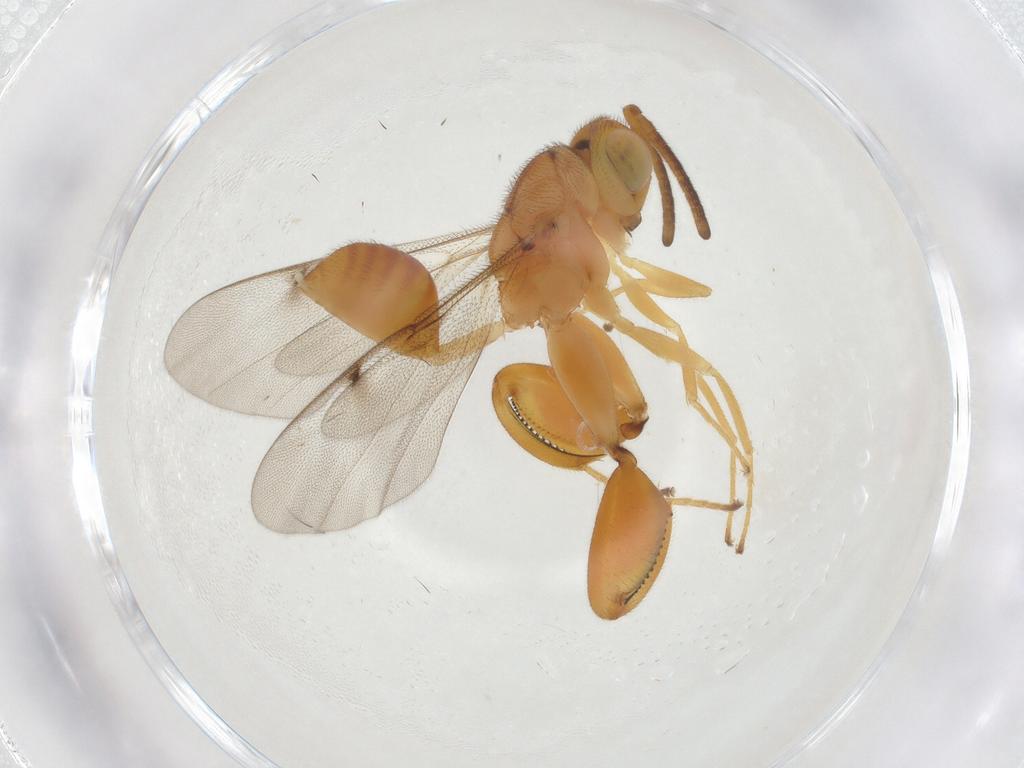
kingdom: Animalia
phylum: Arthropoda
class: Insecta
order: Hymenoptera
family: Chalcididae
